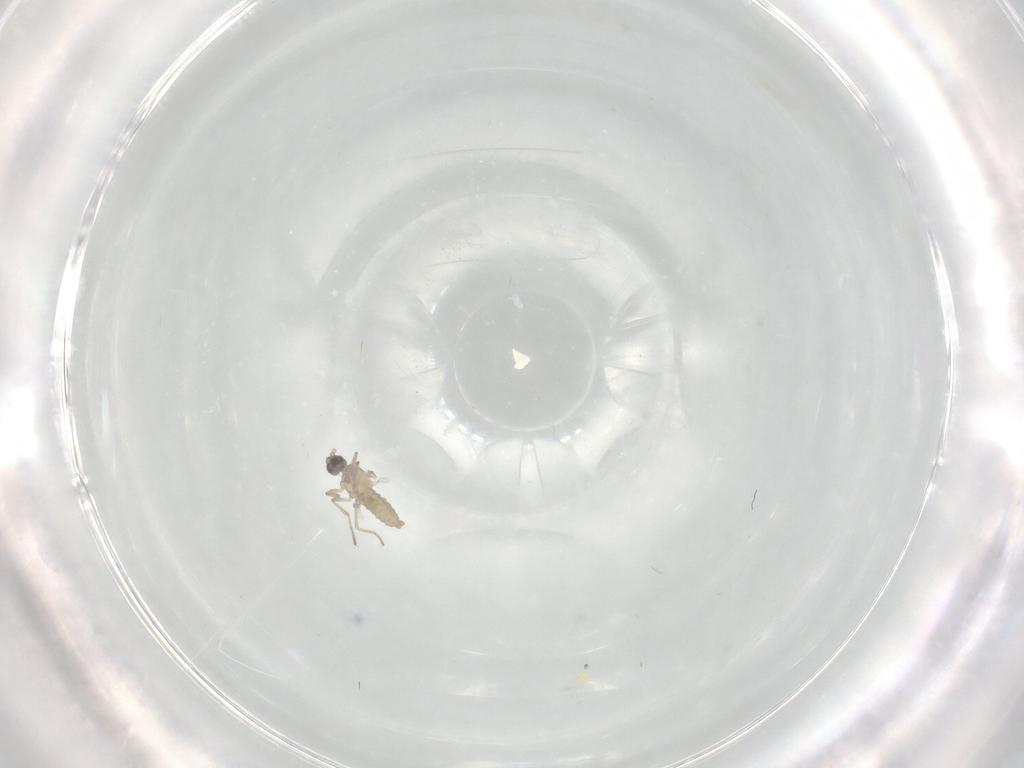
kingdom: Animalia
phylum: Arthropoda
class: Insecta
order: Diptera
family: Cecidomyiidae
